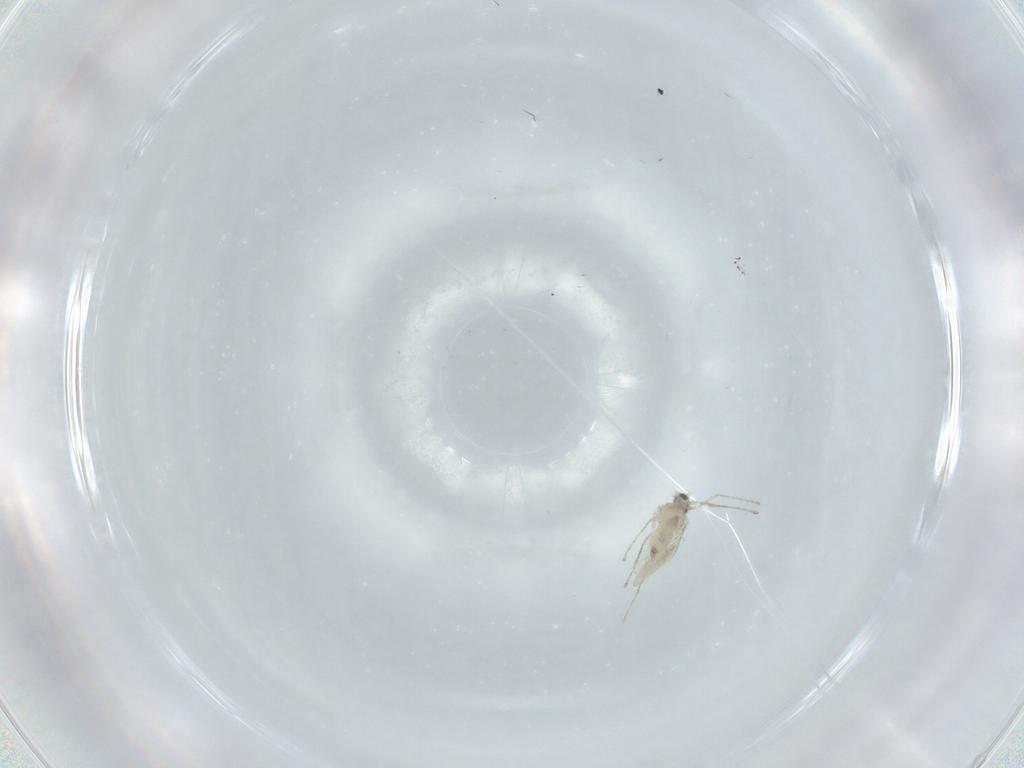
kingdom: Animalia
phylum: Arthropoda
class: Insecta
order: Diptera
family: Cecidomyiidae
